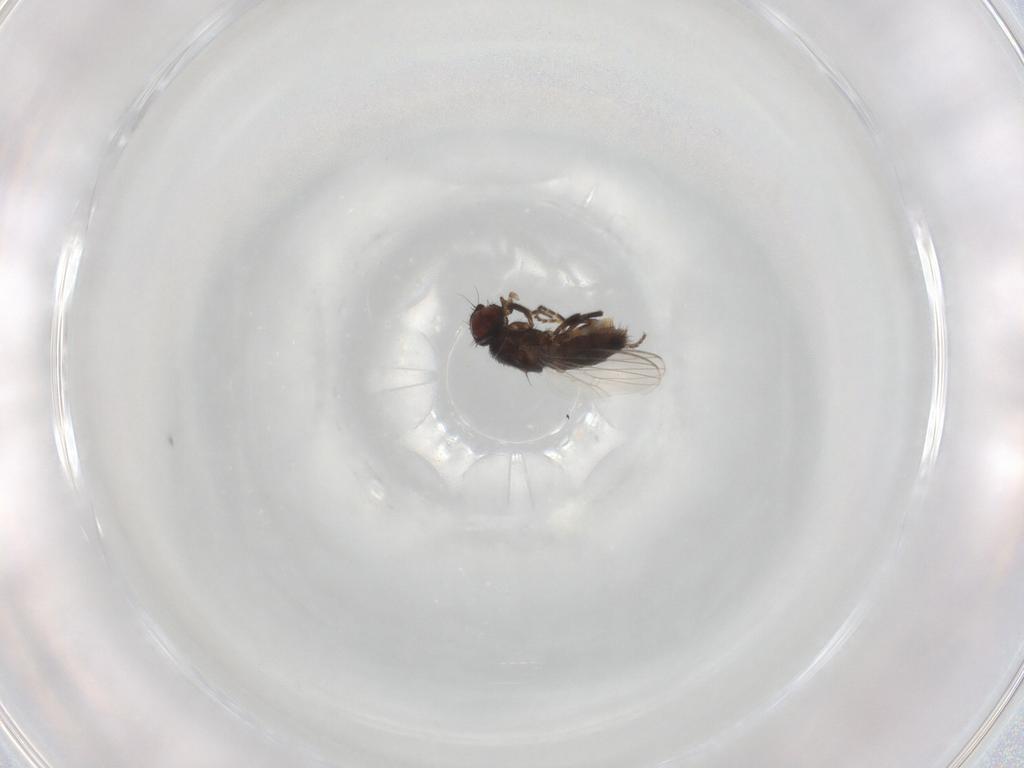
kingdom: Animalia
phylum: Arthropoda
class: Insecta
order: Diptera
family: Milichiidae
